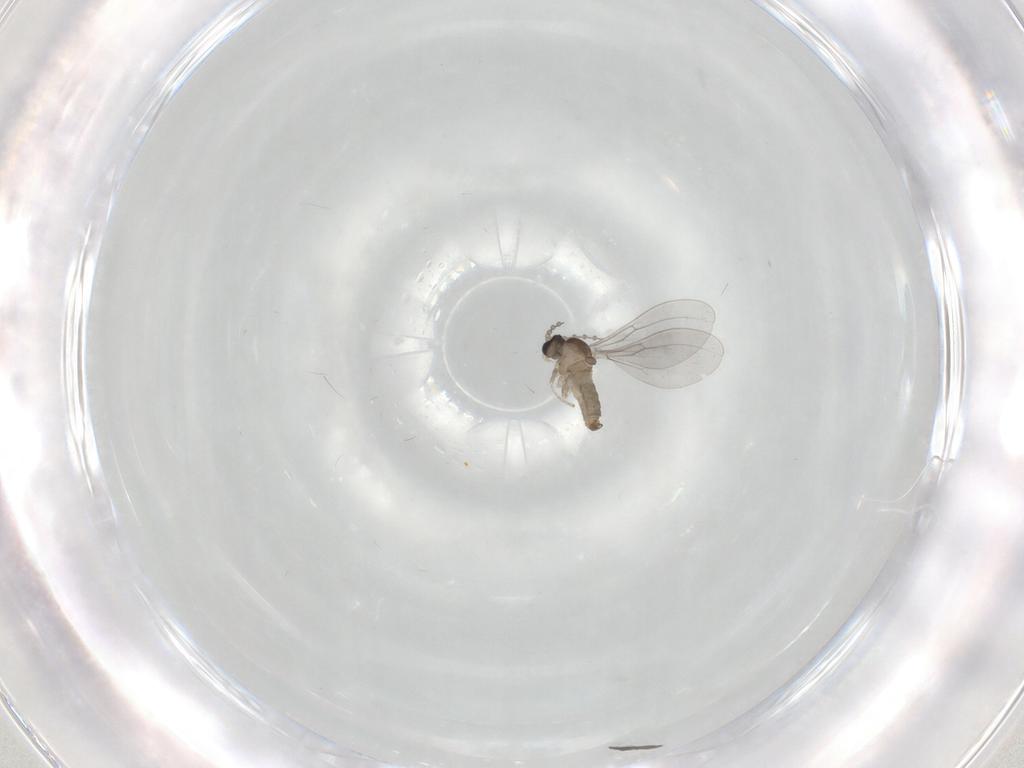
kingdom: Animalia
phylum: Arthropoda
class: Insecta
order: Diptera
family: Cecidomyiidae
